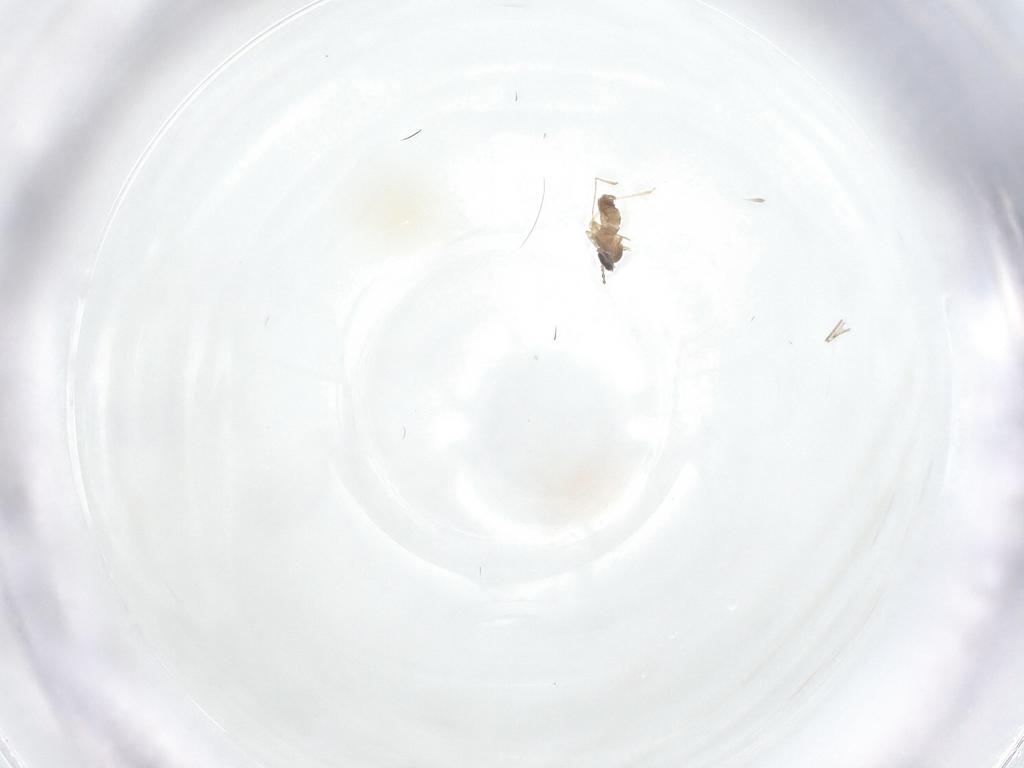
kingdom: Animalia
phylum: Arthropoda
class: Insecta
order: Diptera
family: Tabanidae
